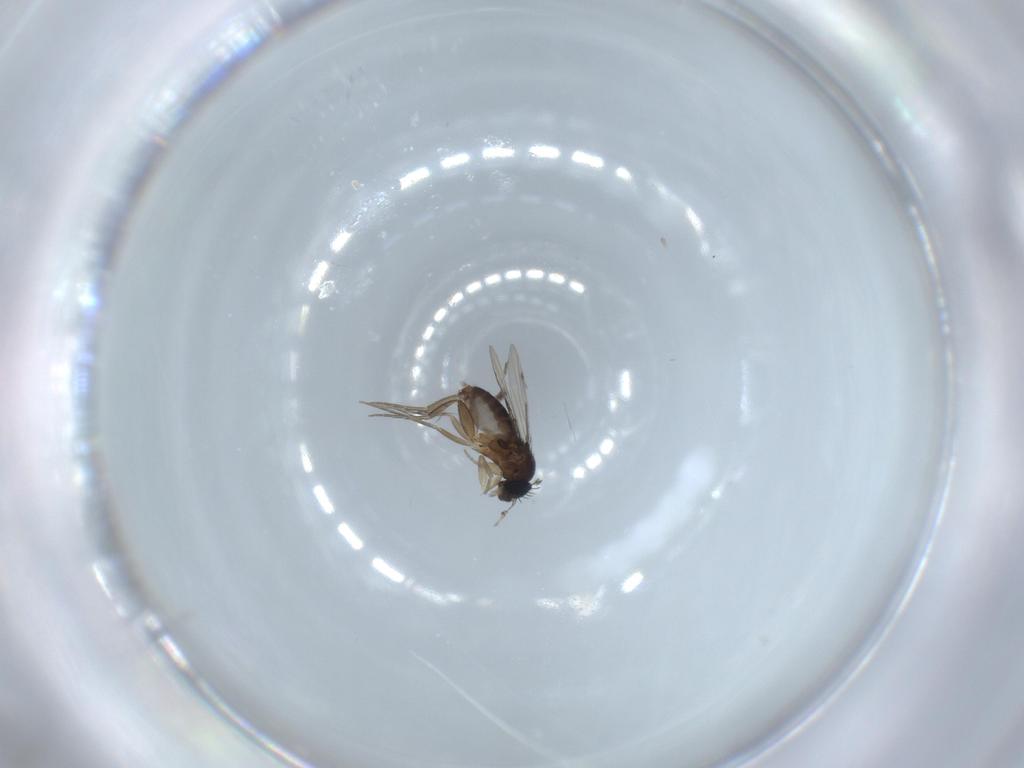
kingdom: Animalia
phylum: Arthropoda
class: Insecta
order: Diptera
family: Phoridae
